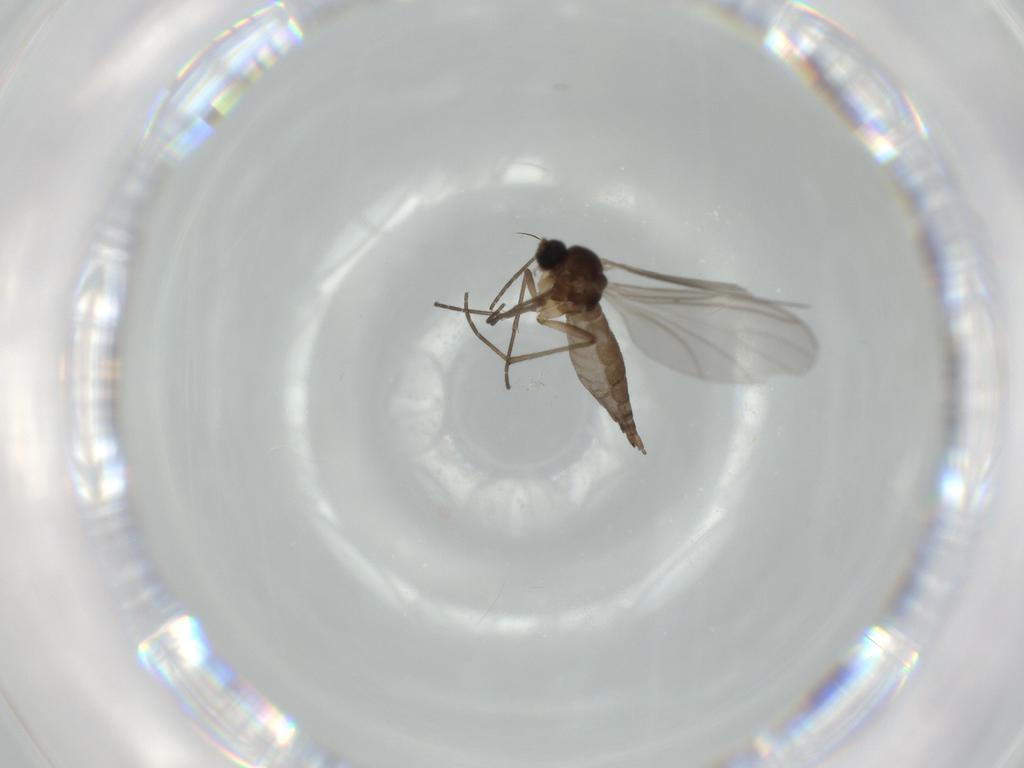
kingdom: Animalia
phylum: Arthropoda
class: Insecta
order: Diptera
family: Sciaridae
